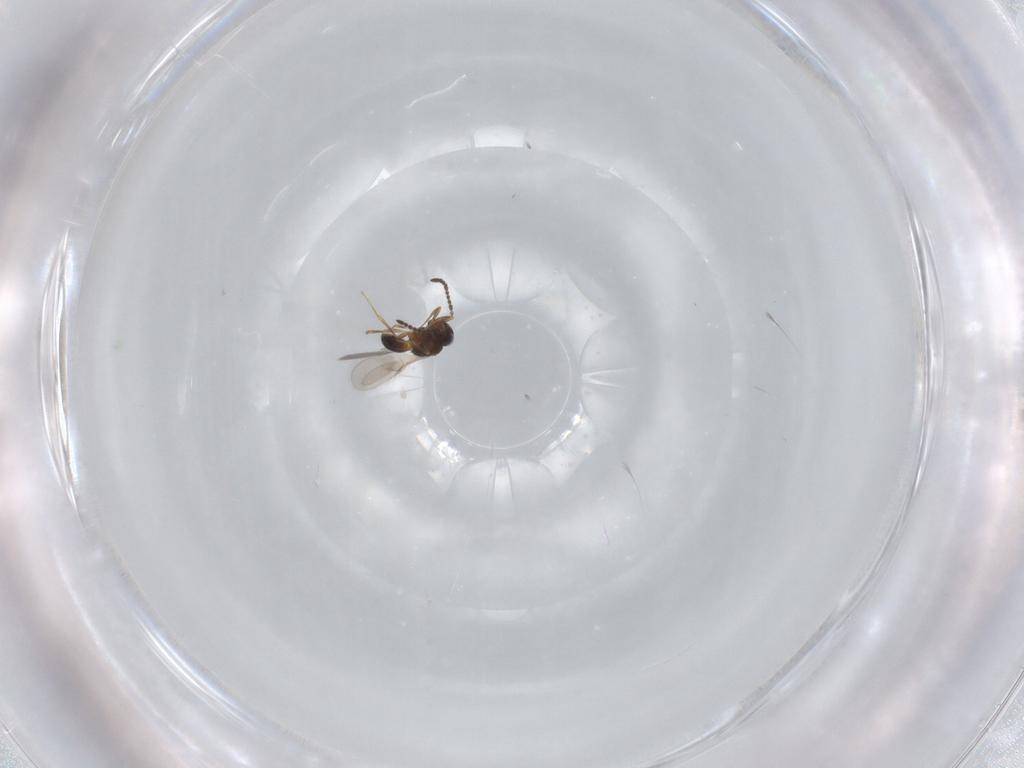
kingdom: Animalia
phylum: Arthropoda
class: Insecta
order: Hymenoptera
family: Scelionidae
